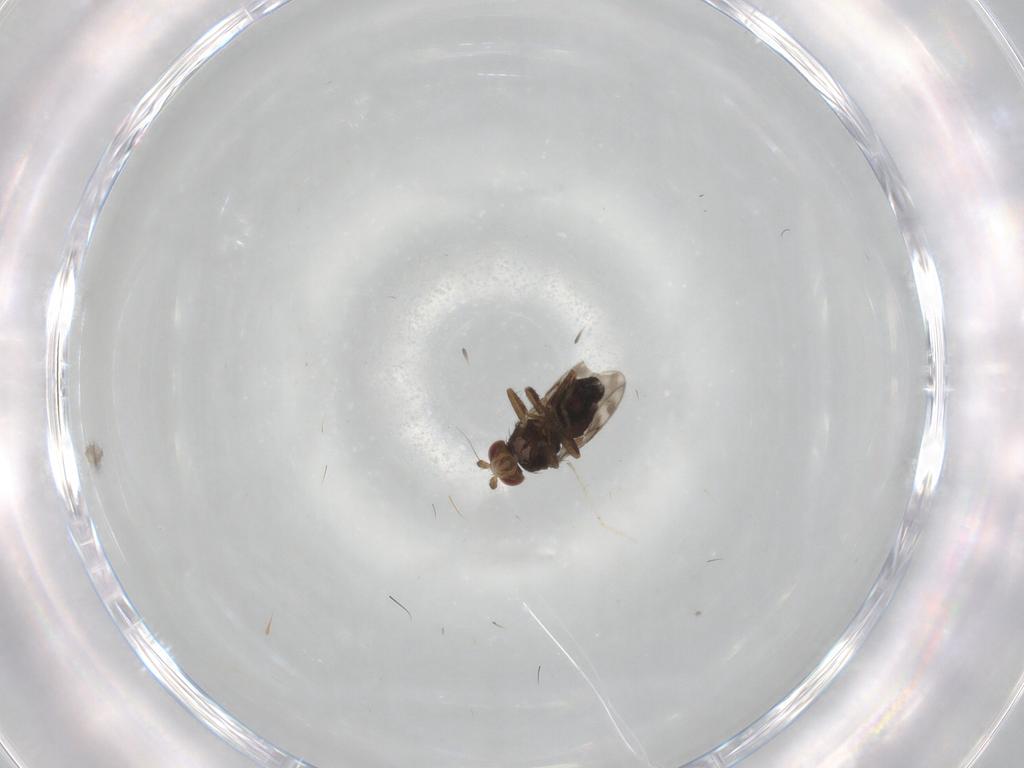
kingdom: Animalia
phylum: Arthropoda
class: Insecta
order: Diptera
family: Sphaeroceridae
